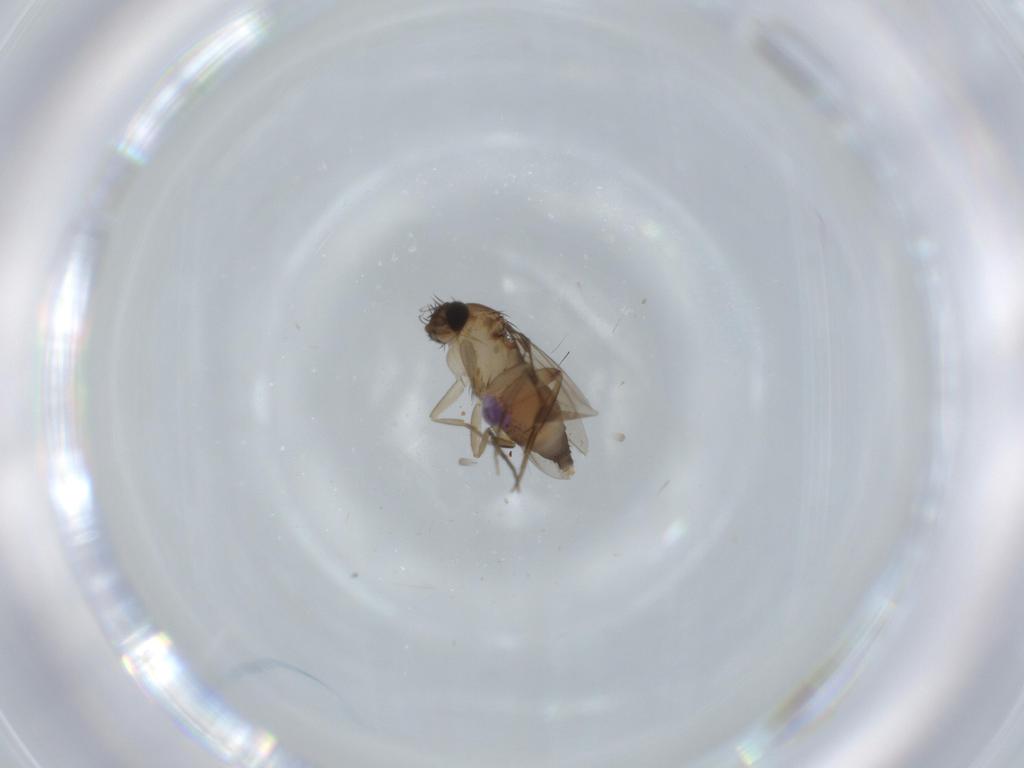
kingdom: Animalia
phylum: Arthropoda
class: Insecta
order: Diptera
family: Phoridae
